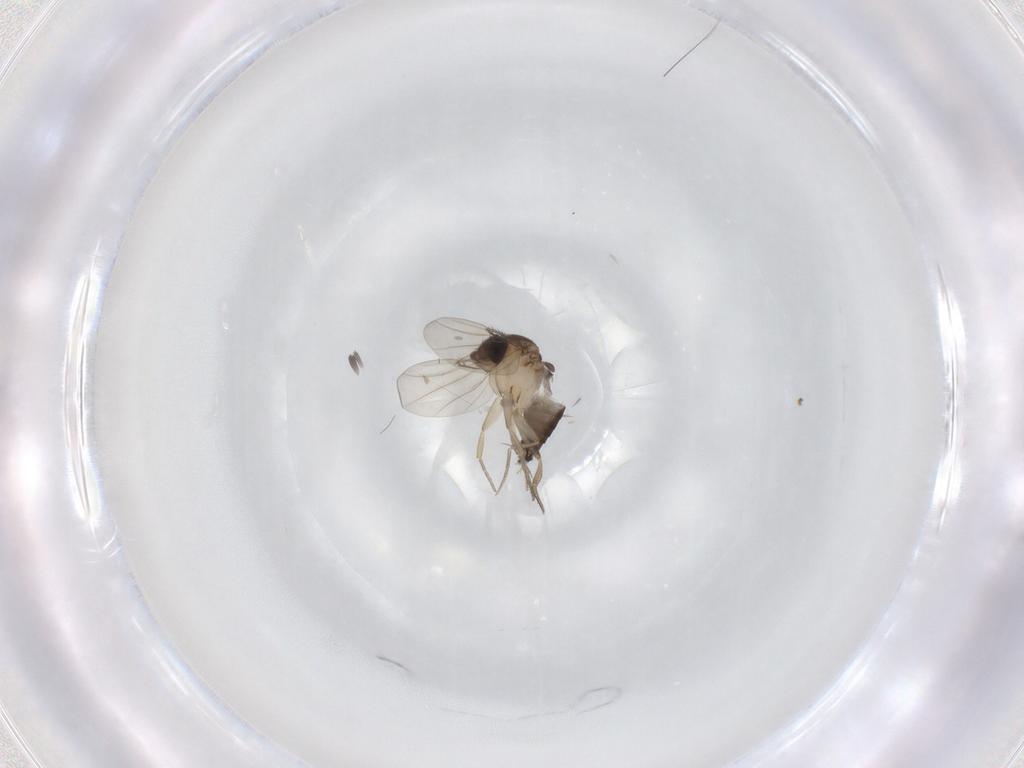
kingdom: Animalia
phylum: Arthropoda
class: Insecta
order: Diptera
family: Phoridae
